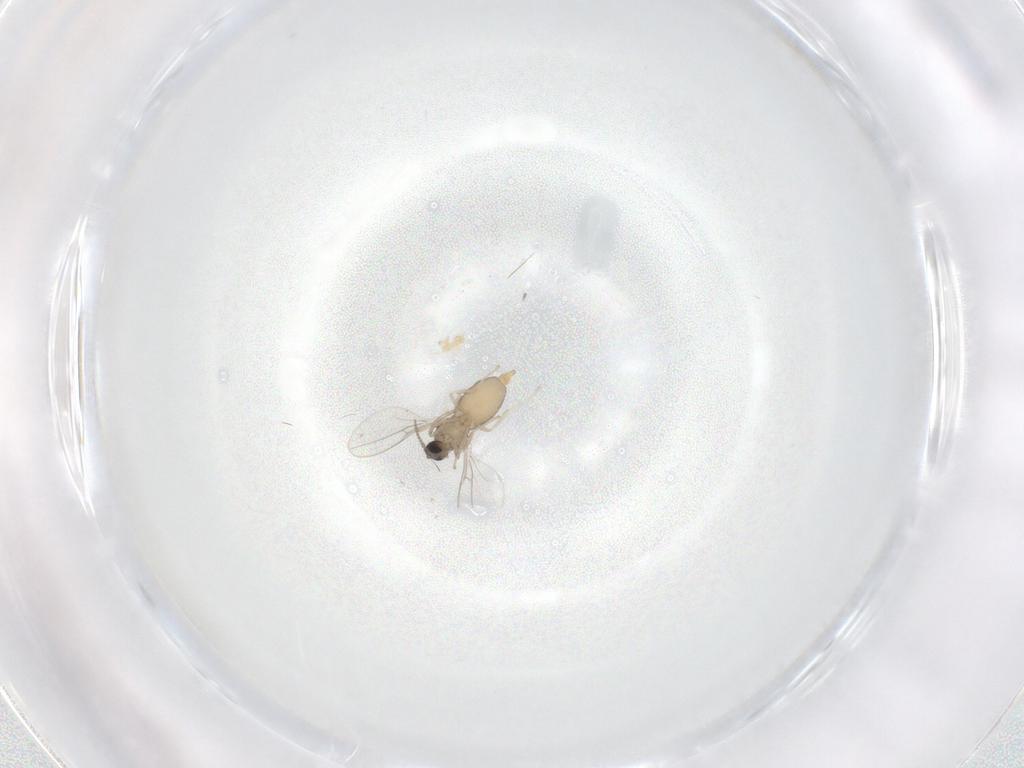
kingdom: Animalia
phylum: Arthropoda
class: Insecta
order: Diptera
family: Cecidomyiidae
